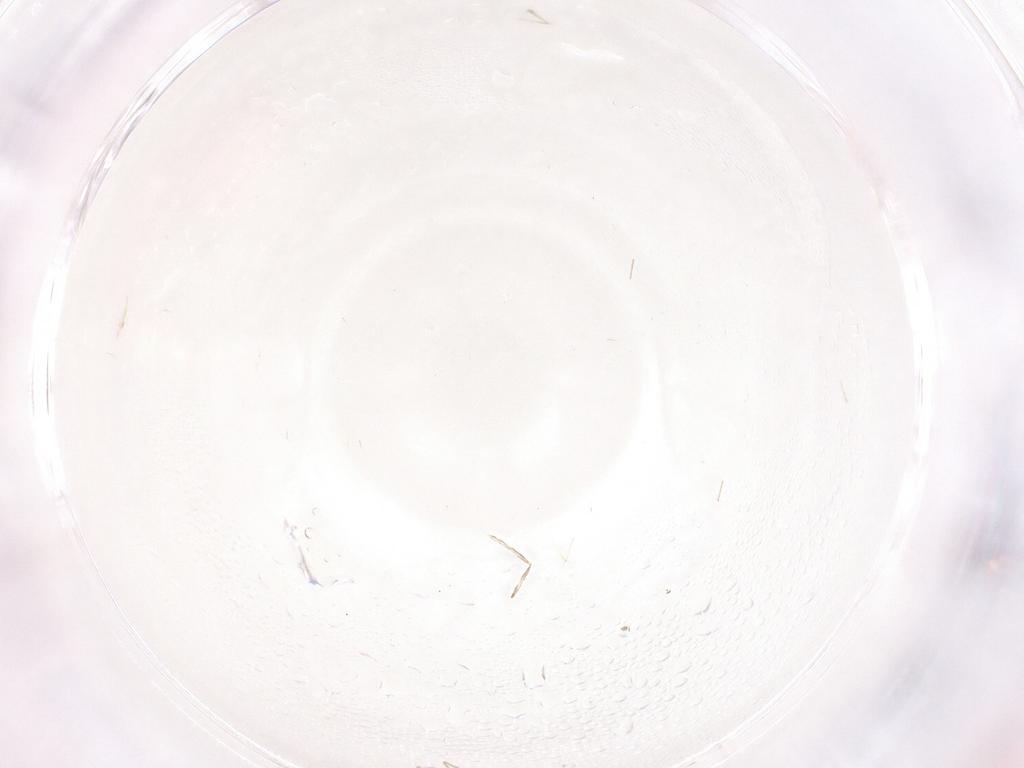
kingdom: Animalia
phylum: Arthropoda
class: Insecta
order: Diptera
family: Cecidomyiidae
